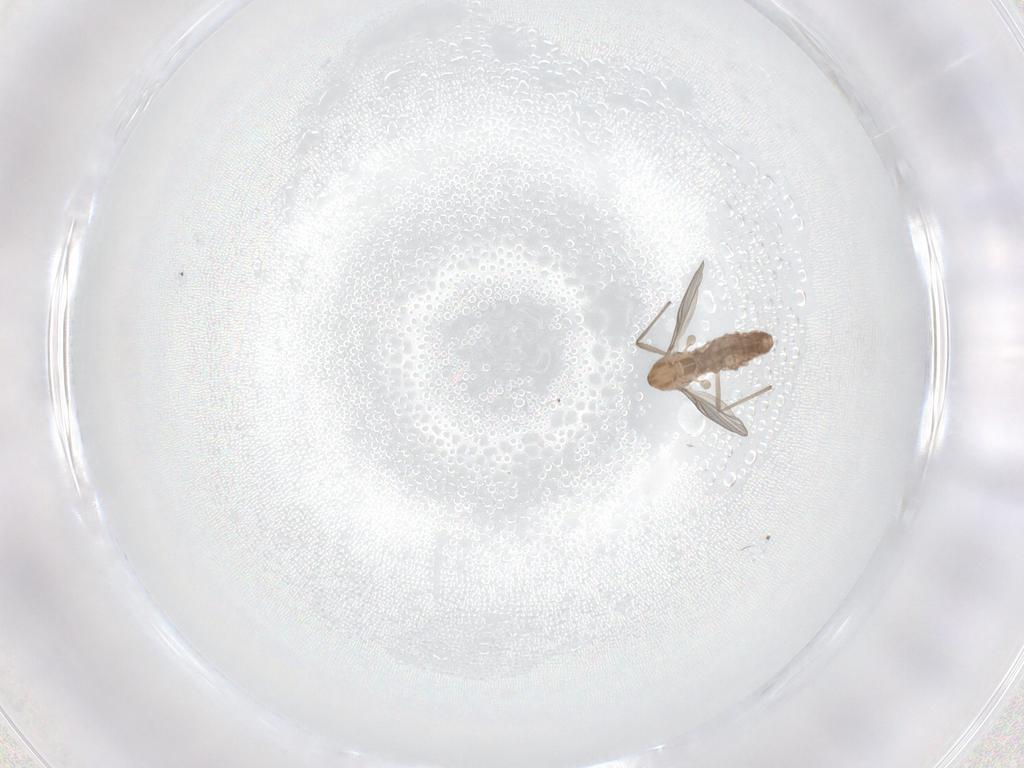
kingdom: Animalia
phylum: Arthropoda
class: Insecta
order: Diptera
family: Chironomidae
